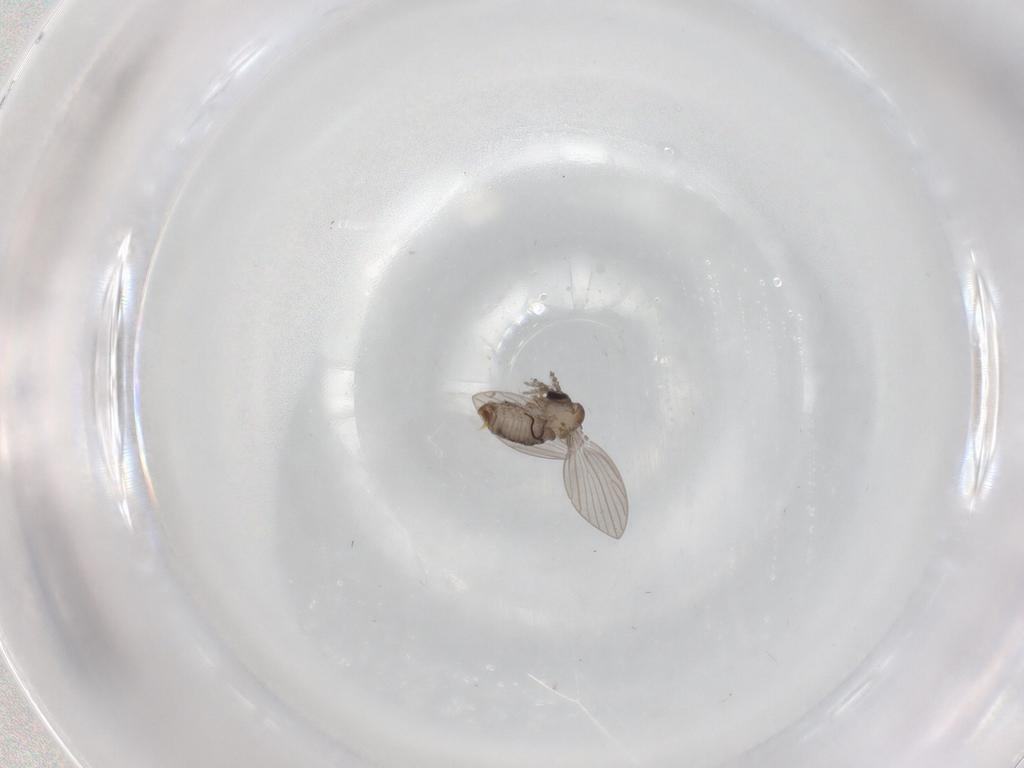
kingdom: Animalia
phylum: Arthropoda
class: Insecta
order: Diptera
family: Psychodidae
